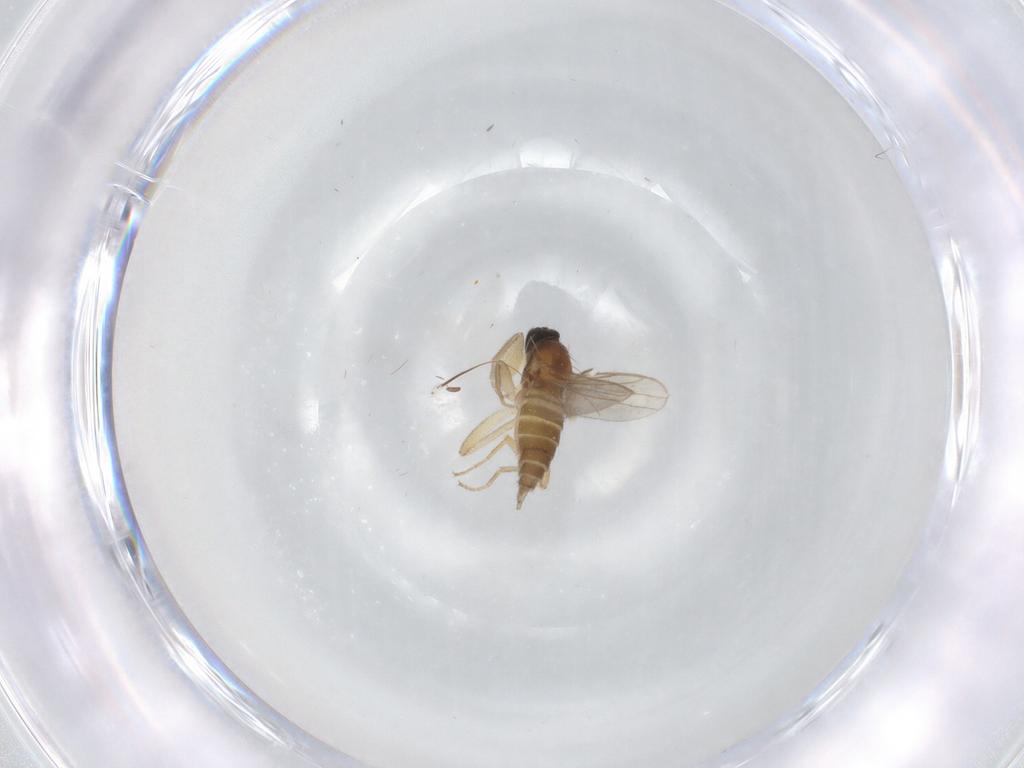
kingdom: Animalia
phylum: Arthropoda
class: Insecta
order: Diptera
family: Hybotidae
